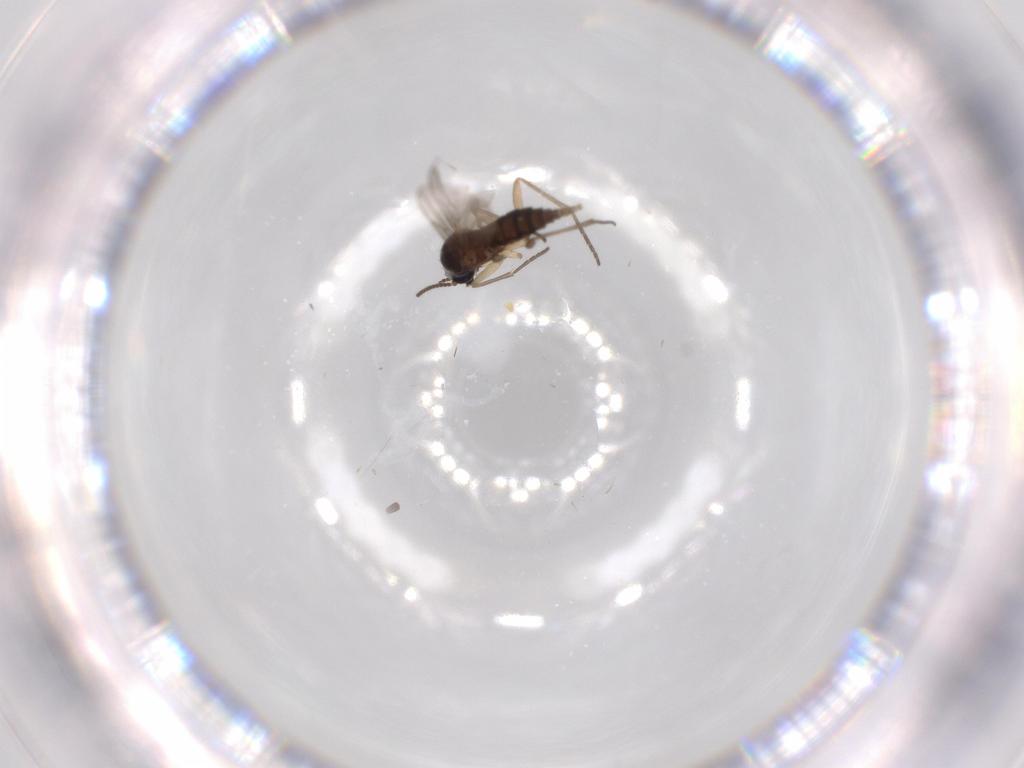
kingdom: Animalia
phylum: Arthropoda
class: Insecta
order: Diptera
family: Sciaridae
